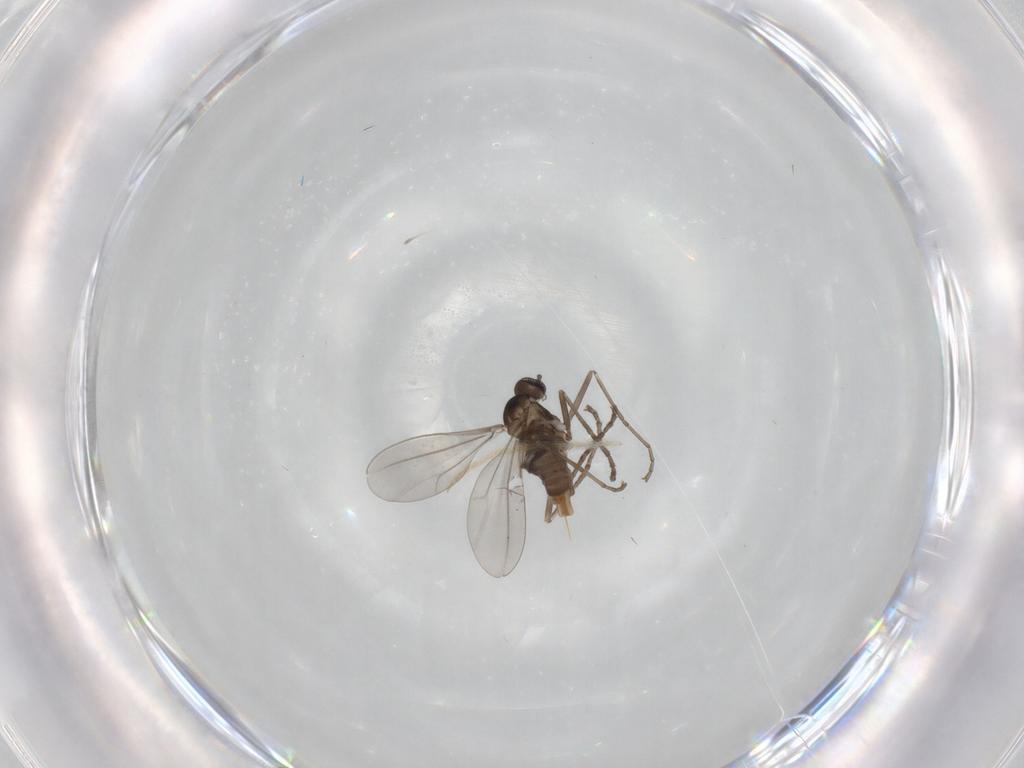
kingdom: Animalia
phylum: Arthropoda
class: Insecta
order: Diptera
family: Cecidomyiidae
